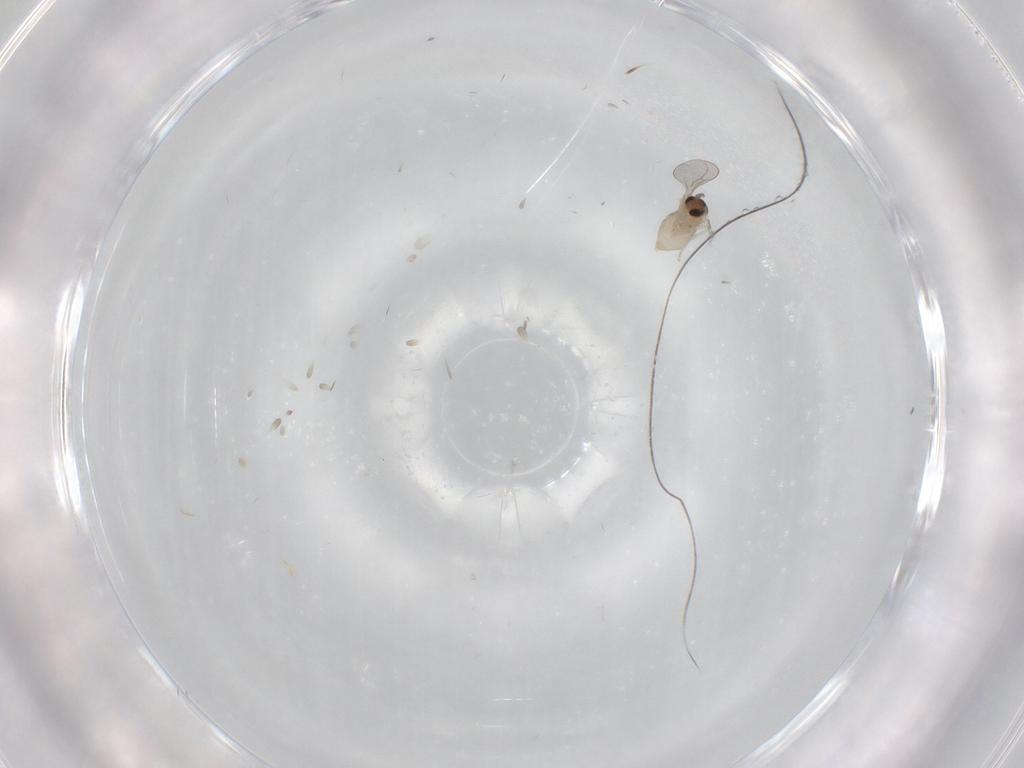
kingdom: Animalia
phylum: Arthropoda
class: Insecta
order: Diptera
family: Cecidomyiidae
